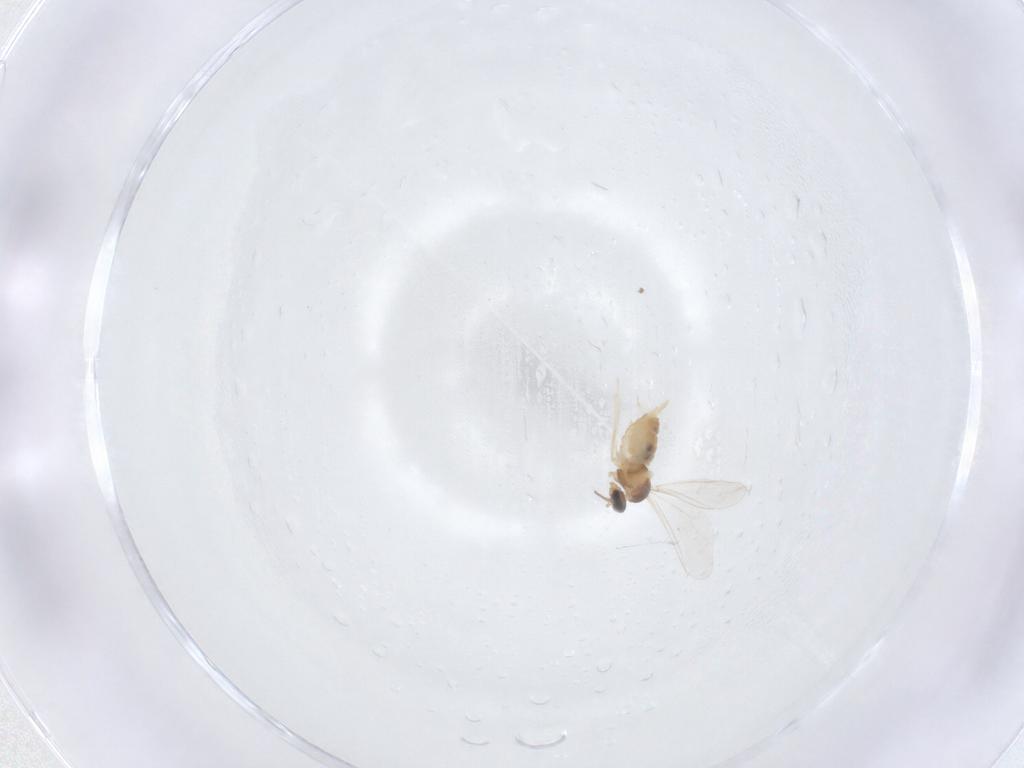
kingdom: Animalia
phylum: Arthropoda
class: Insecta
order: Diptera
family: Cecidomyiidae
